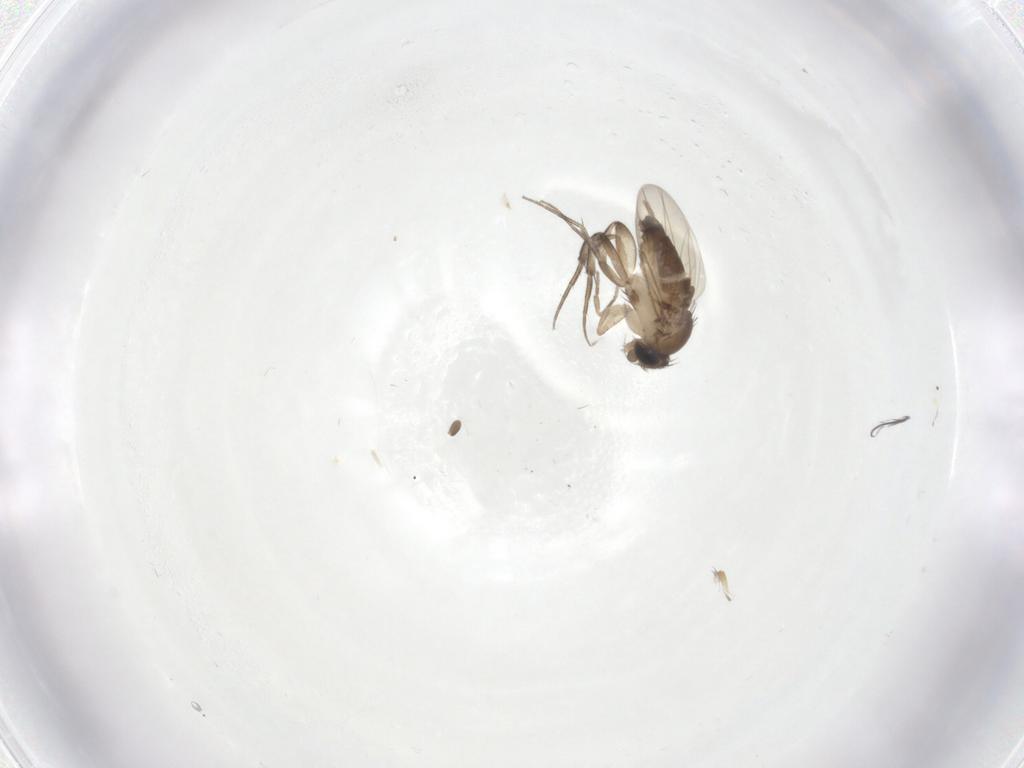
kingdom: Animalia
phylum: Arthropoda
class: Insecta
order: Diptera
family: Phoridae
